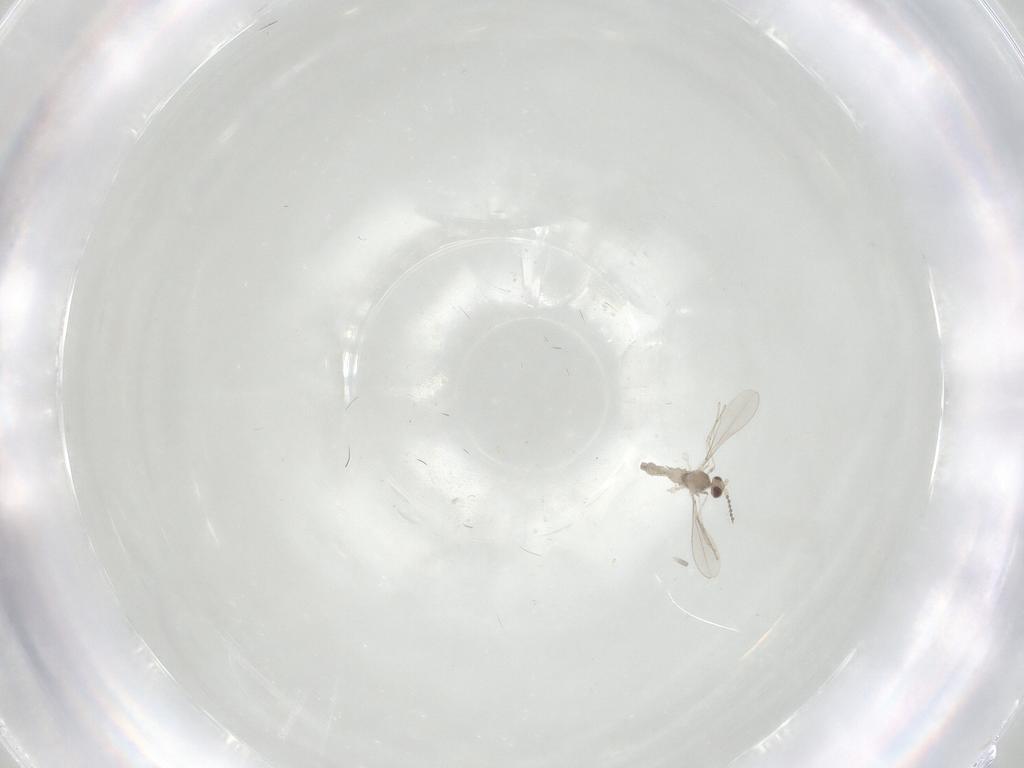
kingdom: Animalia
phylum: Arthropoda
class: Insecta
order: Diptera
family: Cecidomyiidae
